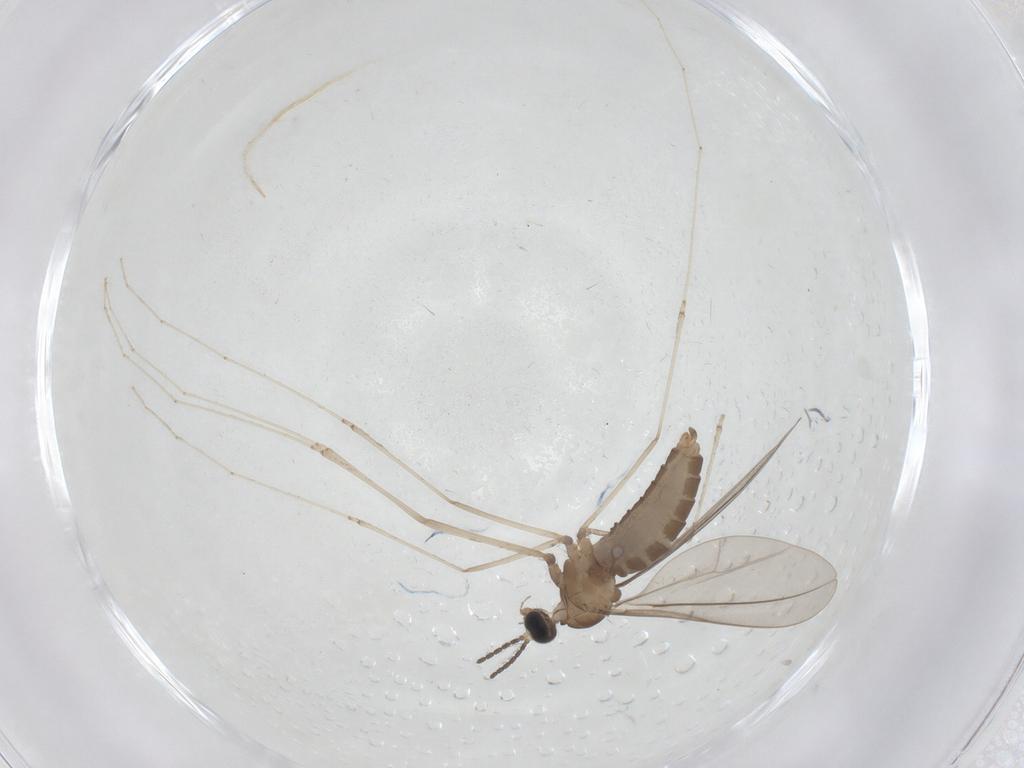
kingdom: Animalia
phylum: Arthropoda
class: Insecta
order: Diptera
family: Cecidomyiidae
